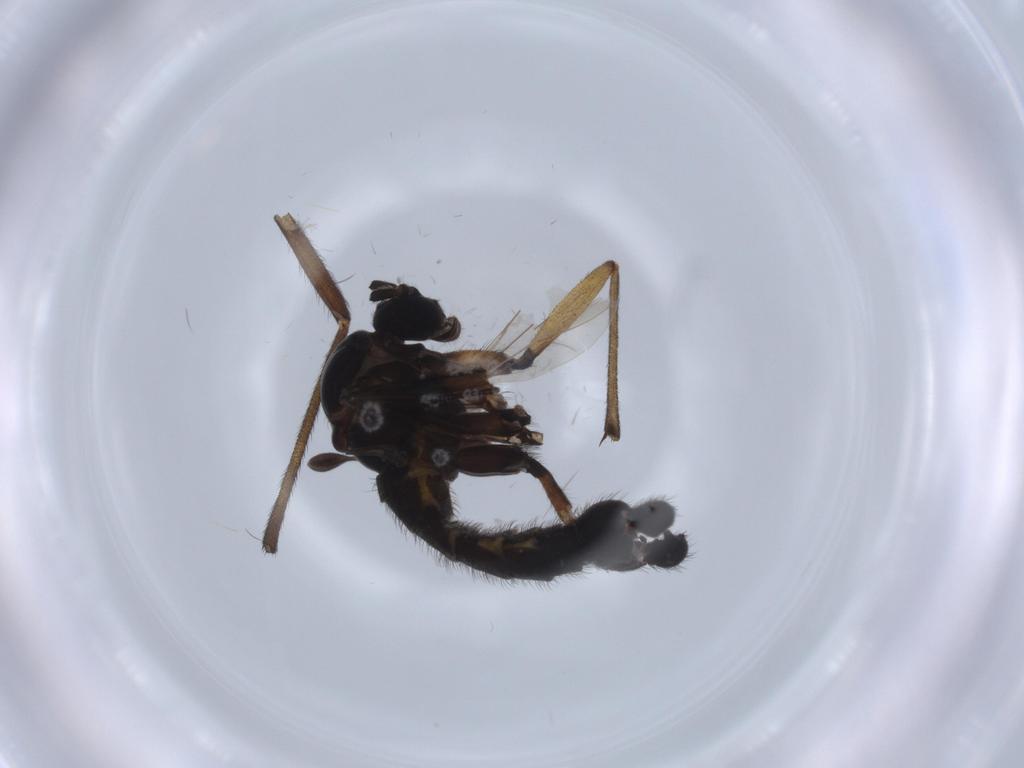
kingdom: Animalia
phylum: Arthropoda
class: Insecta
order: Diptera
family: Sciaridae
